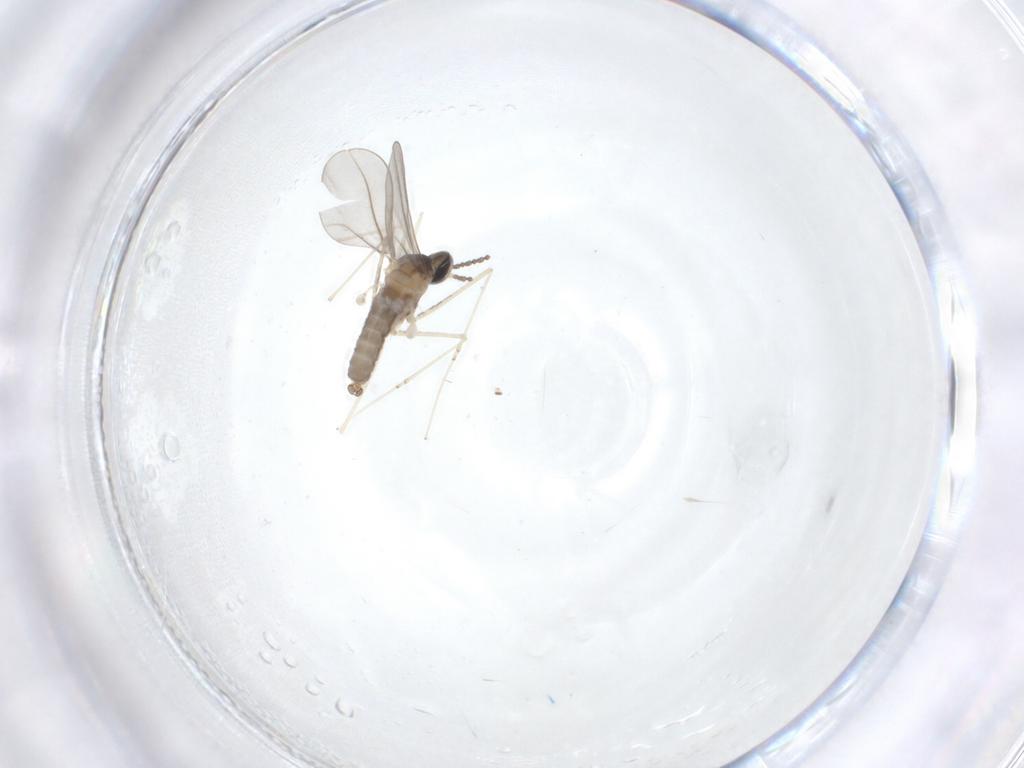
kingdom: Animalia
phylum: Arthropoda
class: Insecta
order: Diptera
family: Cecidomyiidae
